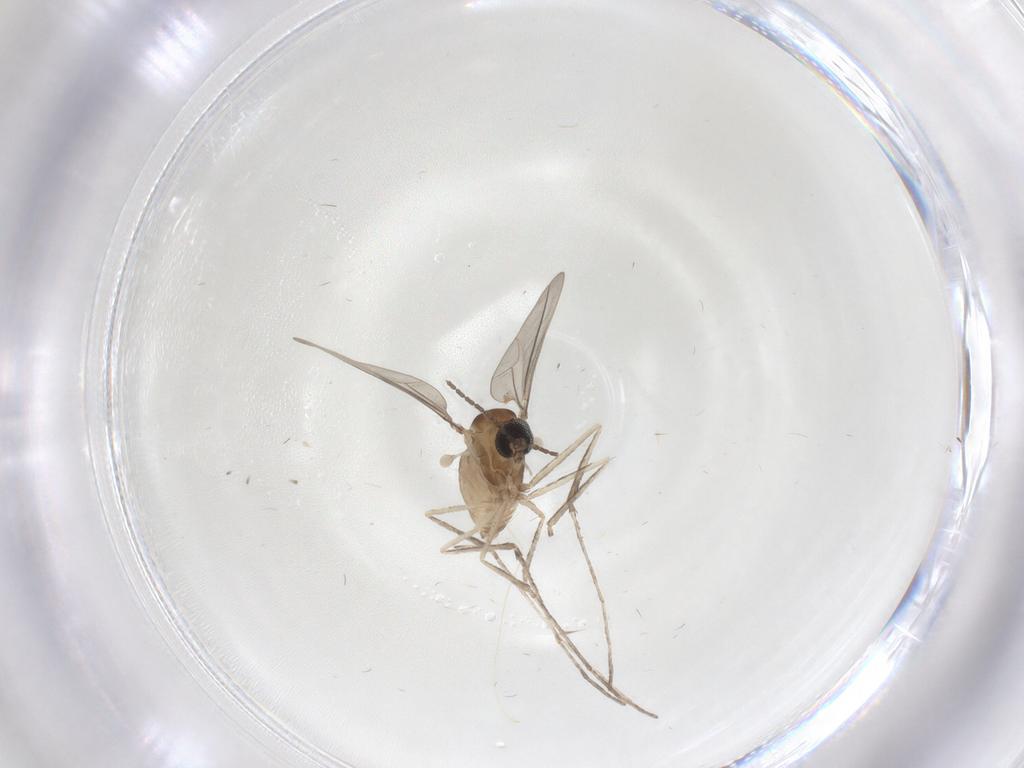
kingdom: Animalia
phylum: Arthropoda
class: Insecta
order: Diptera
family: Cecidomyiidae
